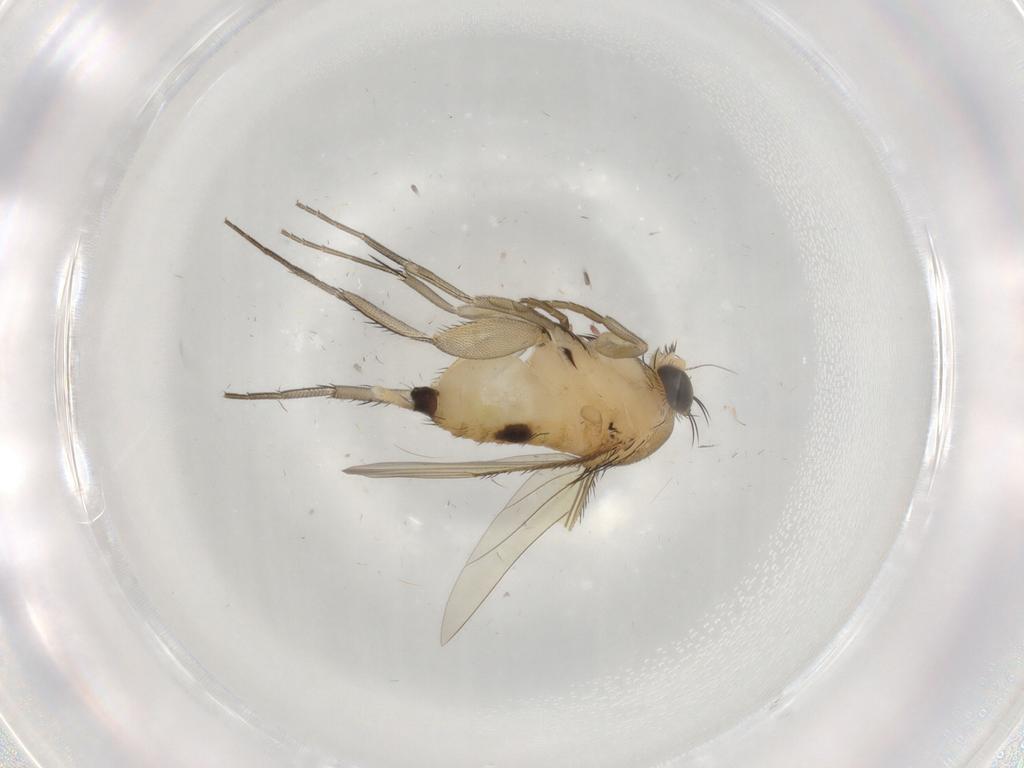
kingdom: Animalia
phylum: Arthropoda
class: Insecta
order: Diptera
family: Phoridae
